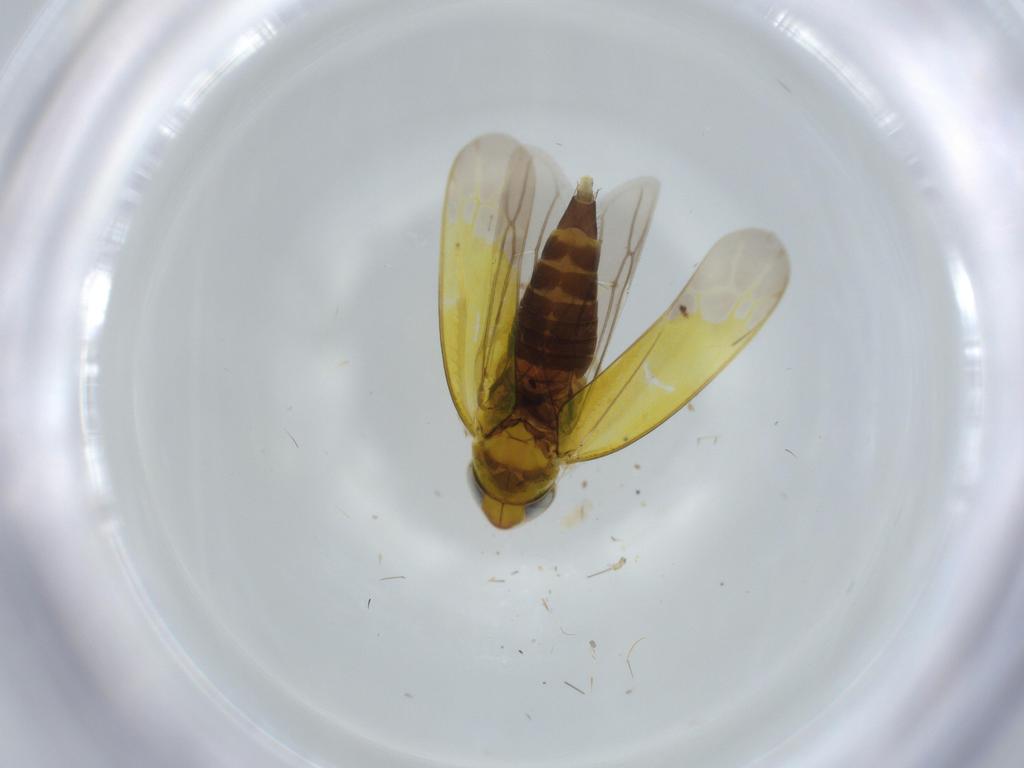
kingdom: Animalia
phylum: Arthropoda
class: Insecta
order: Hemiptera
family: Cicadellidae
